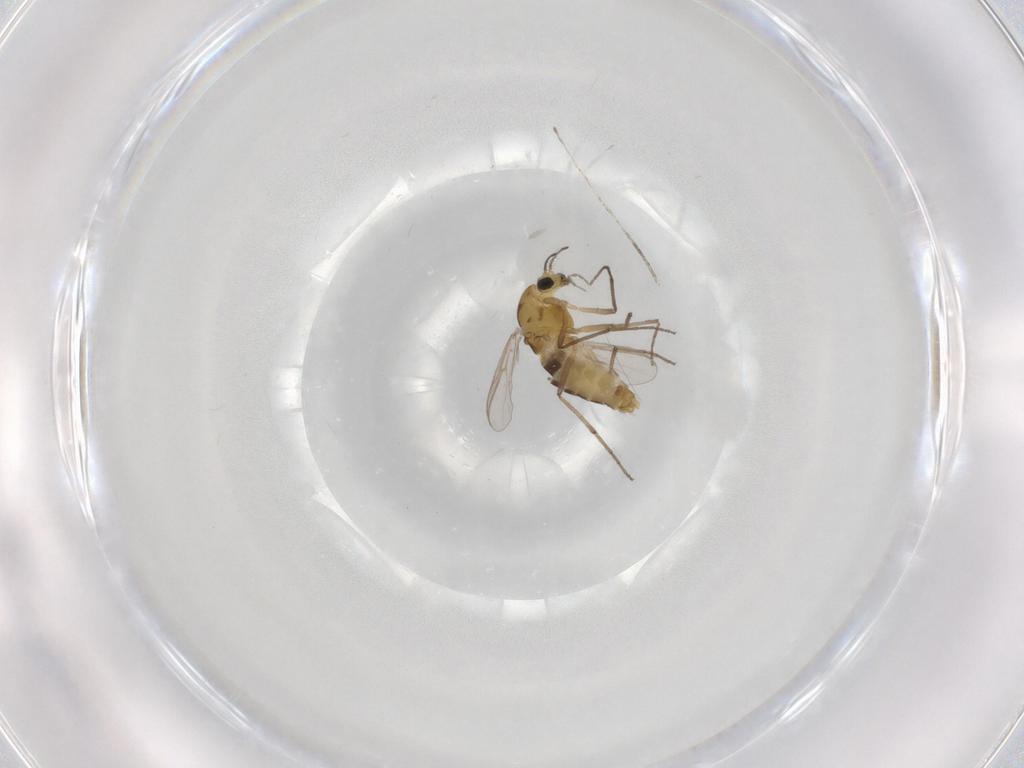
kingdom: Animalia
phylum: Arthropoda
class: Insecta
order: Diptera
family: Chironomidae
